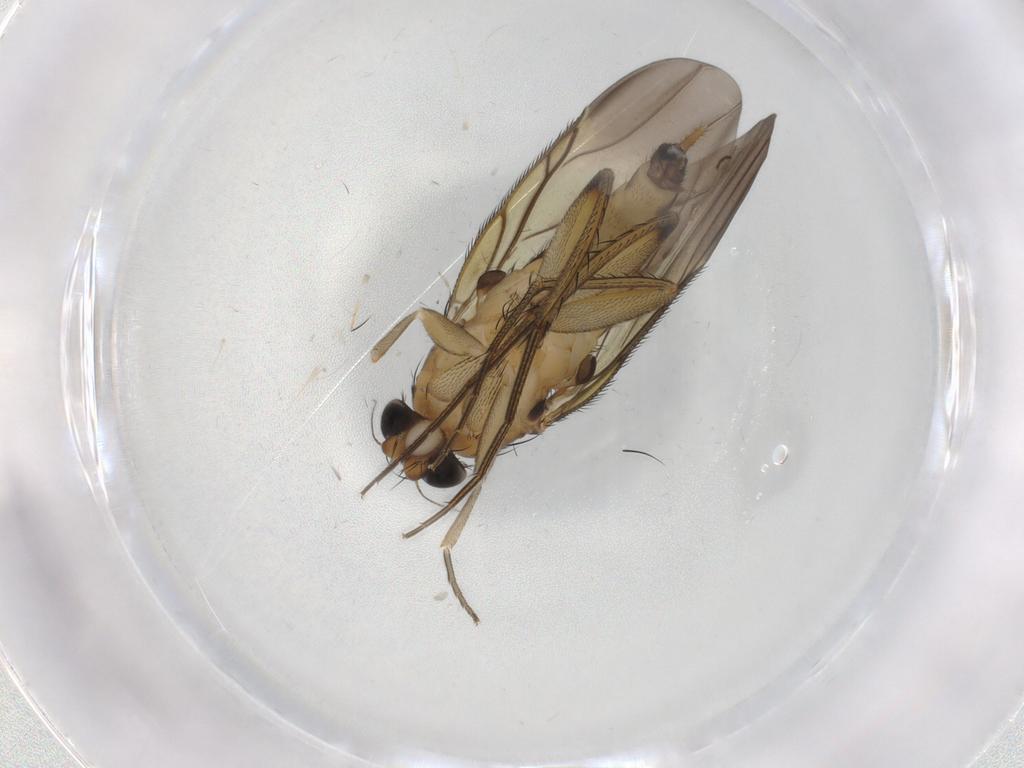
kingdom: Animalia
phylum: Arthropoda
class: Insecta
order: Diptera
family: Phoridae
